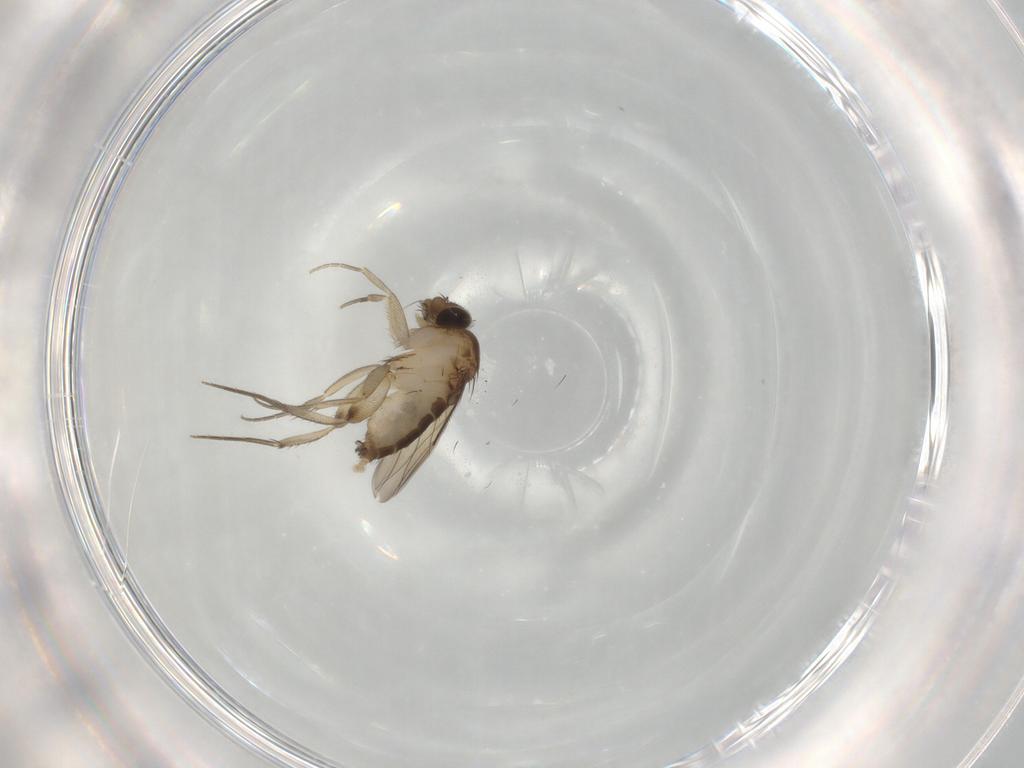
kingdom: Animalia
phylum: Arthropoda
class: Insecta
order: Diptera
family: Phoridae
